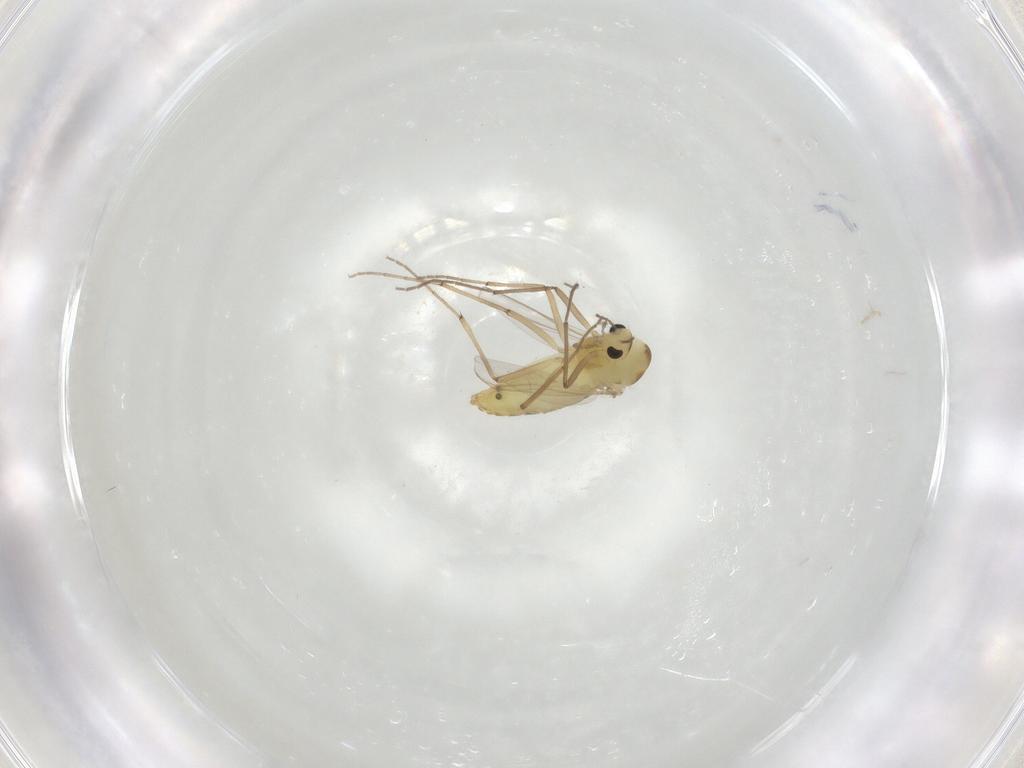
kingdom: Animalia
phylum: Arthropoda
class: Insecta
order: Diptera
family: Chironomidae
